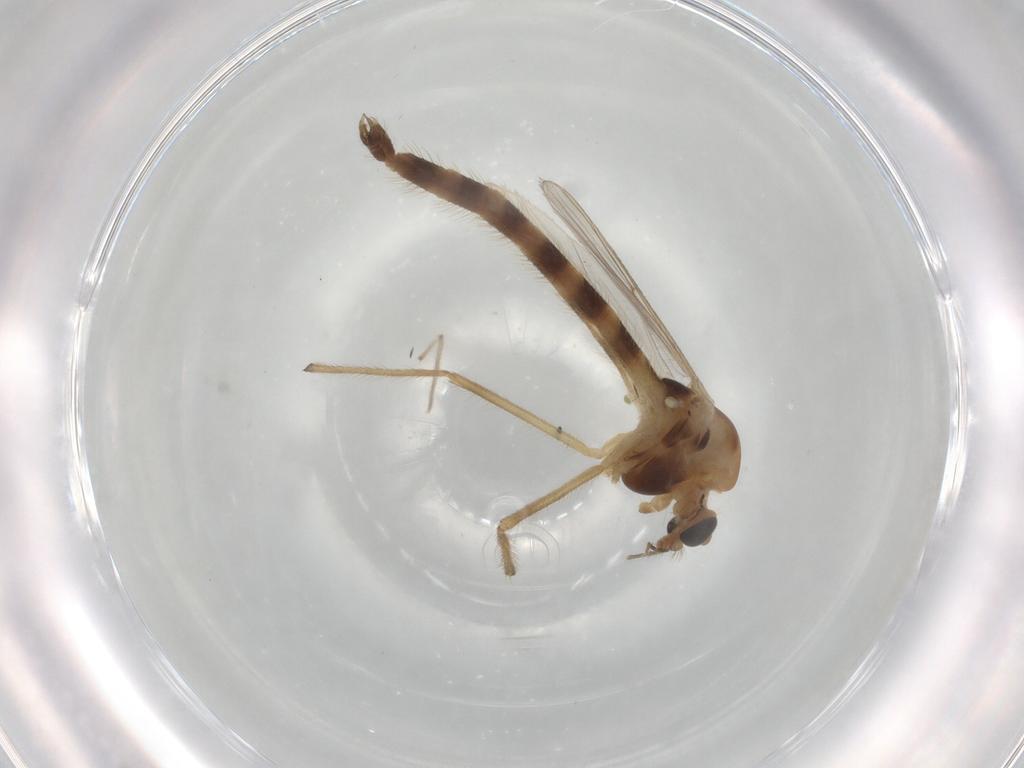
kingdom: Animalia
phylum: Arthropoda
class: Insecta
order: Diptera
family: Chironomidae
